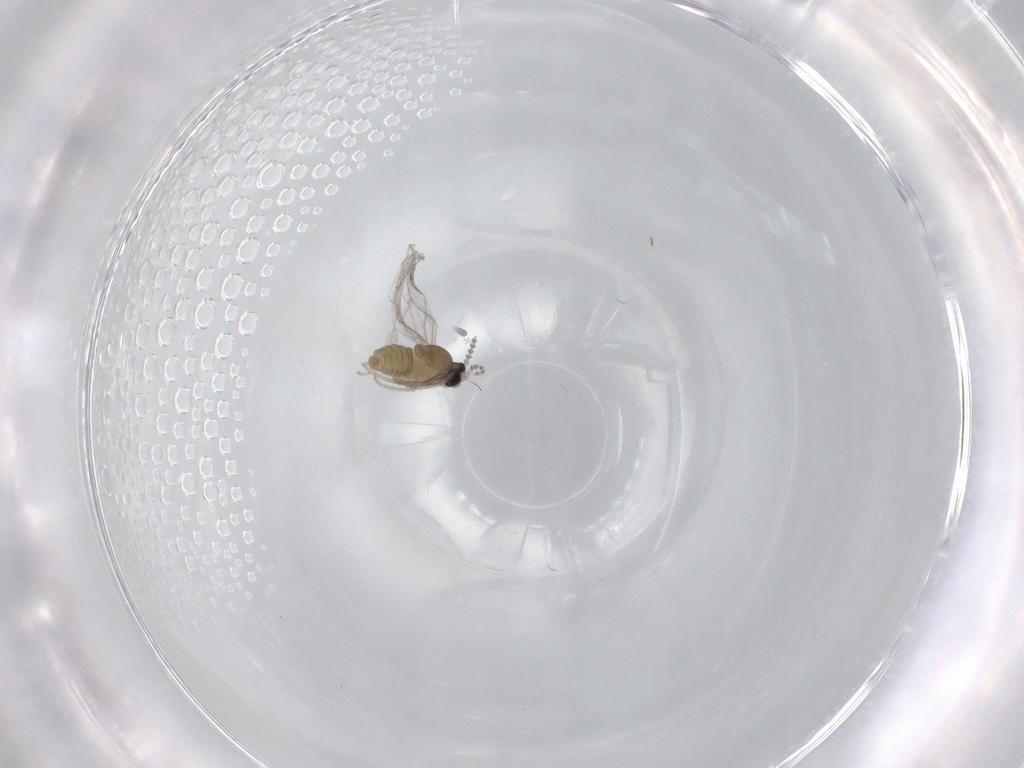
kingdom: Animalia
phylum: Arthropoda
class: Insecta
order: Diptera
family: Cecidomyiidae
